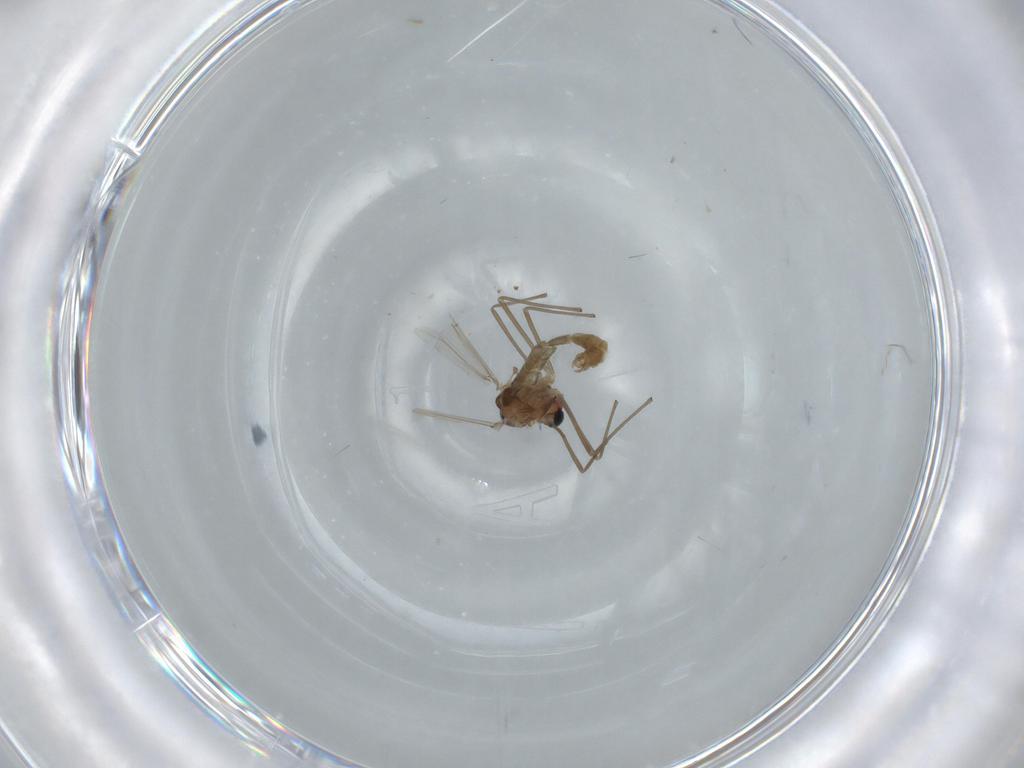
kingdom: Animalia
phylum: Arthropoda
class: Insecta
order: Diptera
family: Chironomidae
